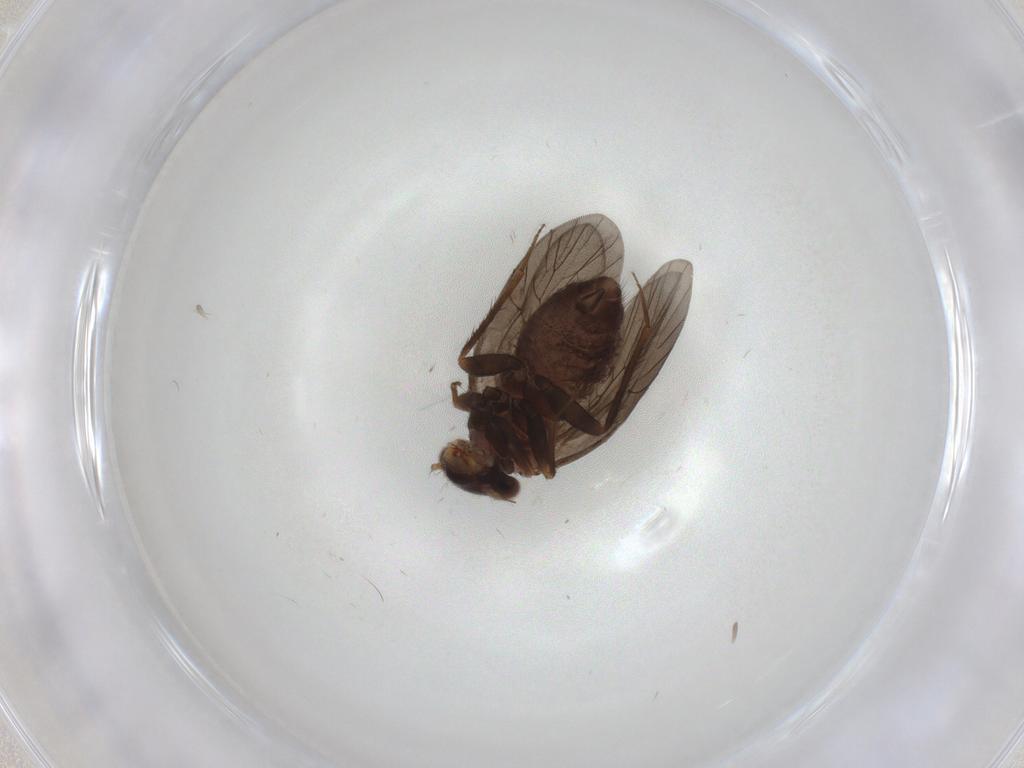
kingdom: Animalia
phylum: Arthropoda
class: Insecta
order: Psocodea
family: Lepidopsocidae
